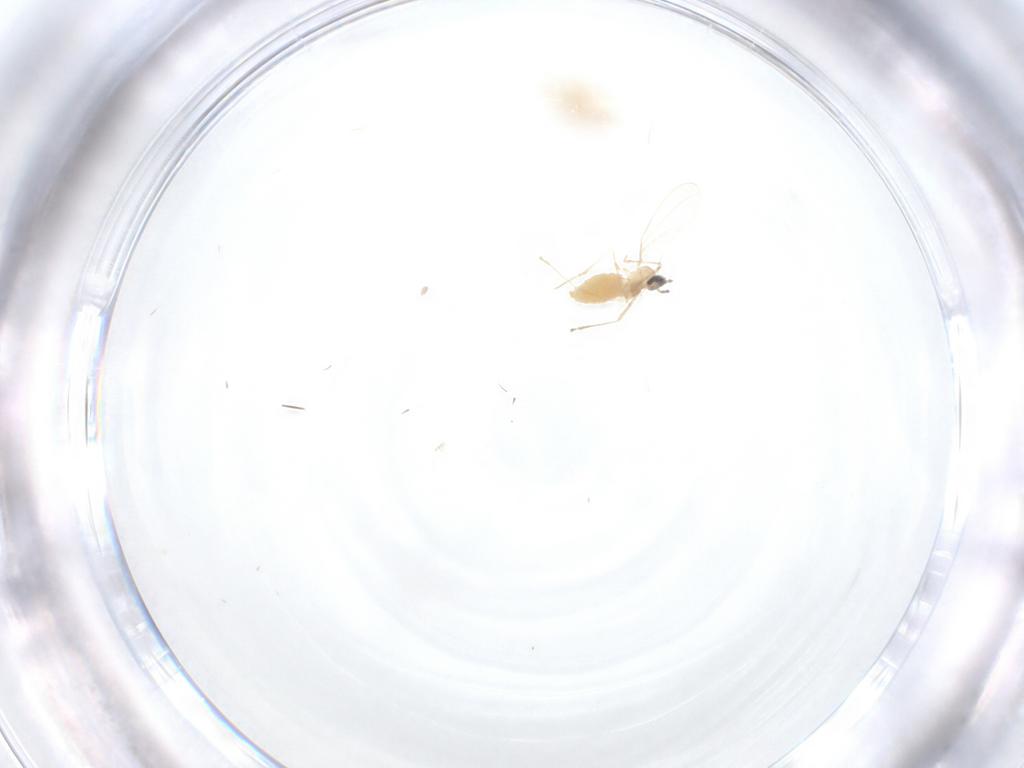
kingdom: Animalia
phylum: Arthropoda
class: Insecta
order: Diptera
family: Cecidomyiidae
